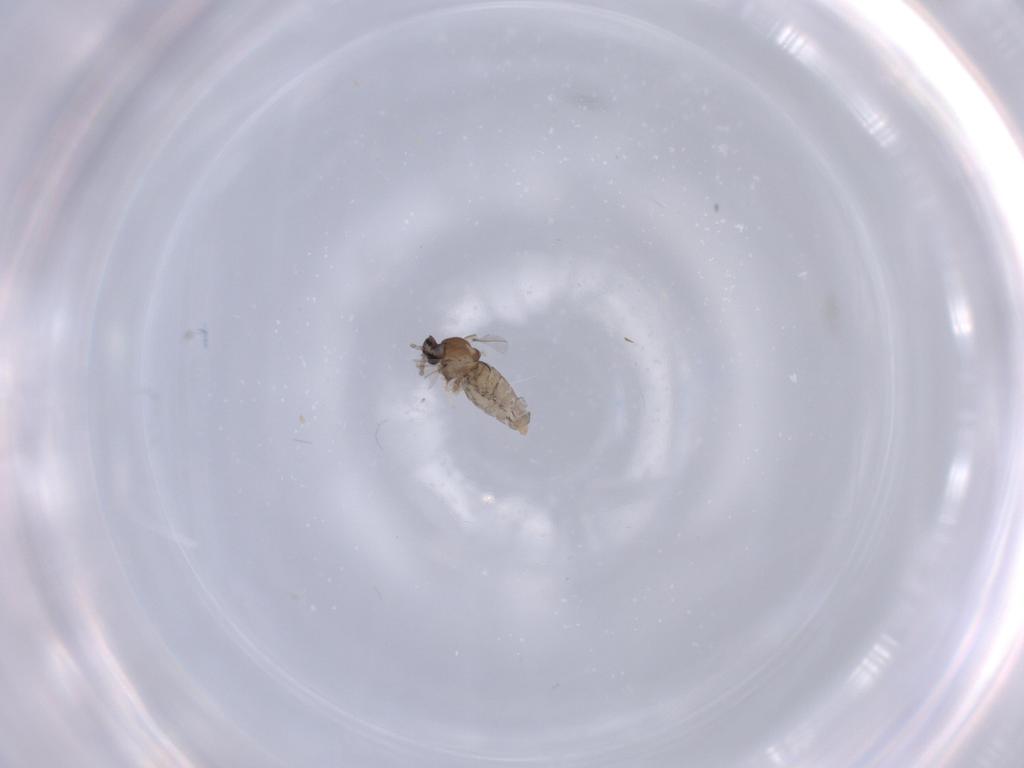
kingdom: Animalia
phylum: Arthropoda
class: Insecta
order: Diptera
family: Cecidomyiidae
